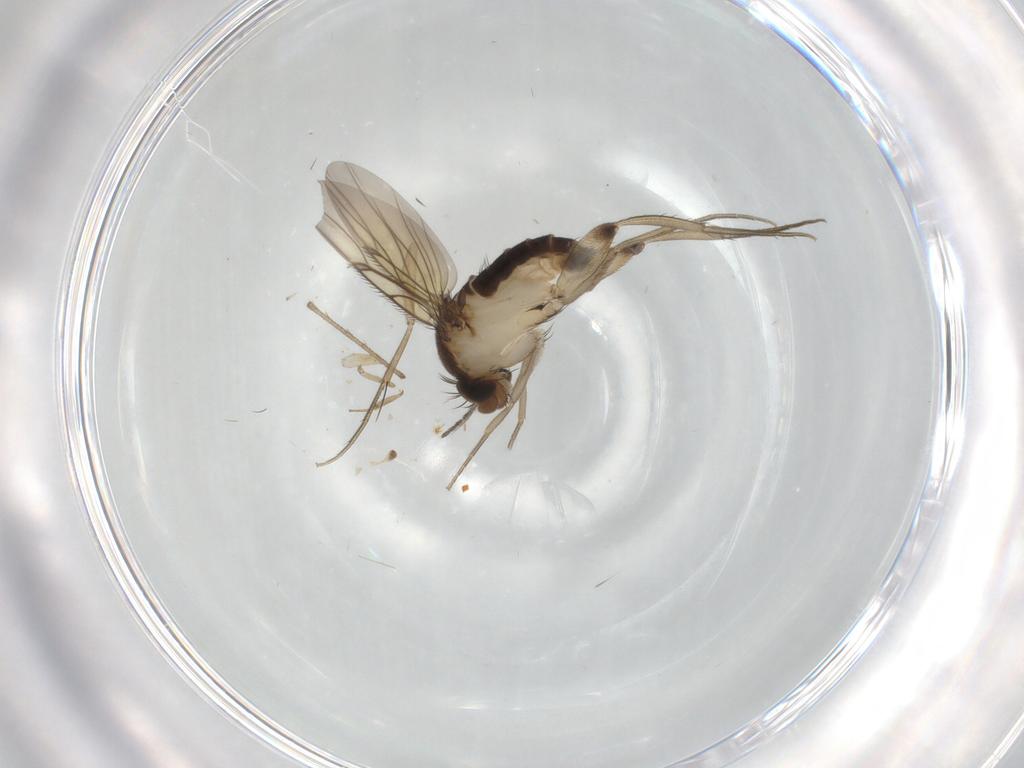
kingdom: Animalia
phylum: Arthropoda
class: Insecta
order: Diptera
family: Phoridae
